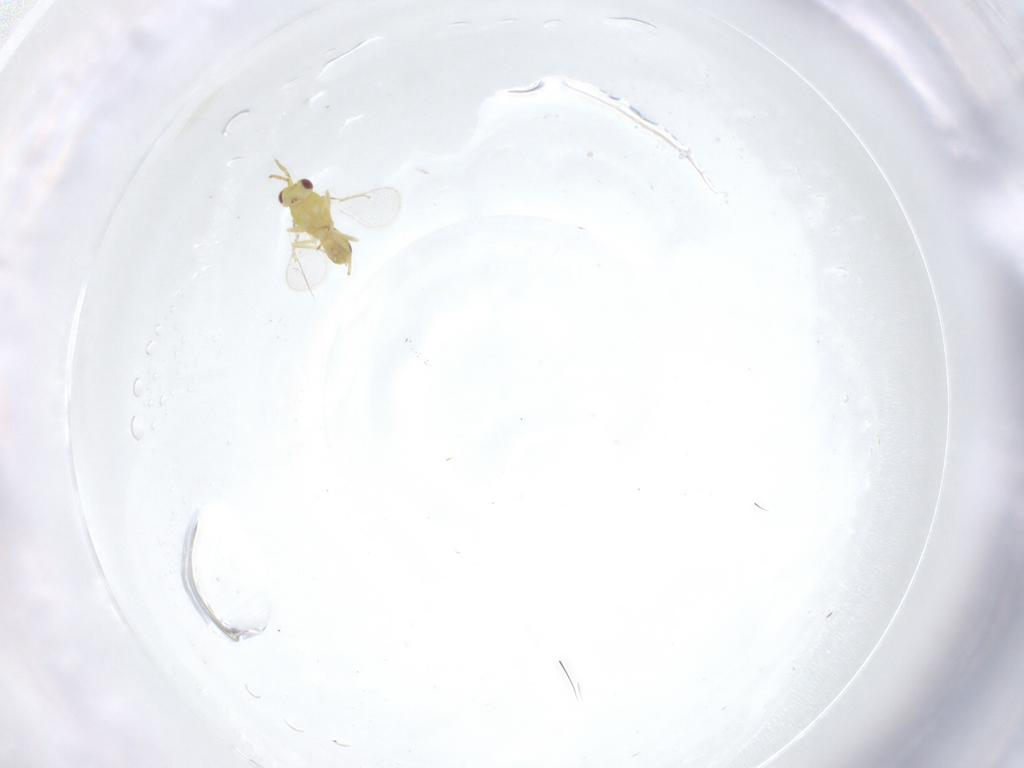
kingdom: Animalia
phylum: Arthropoda
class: Insecta
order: Hymenoptera
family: Eulophidae
